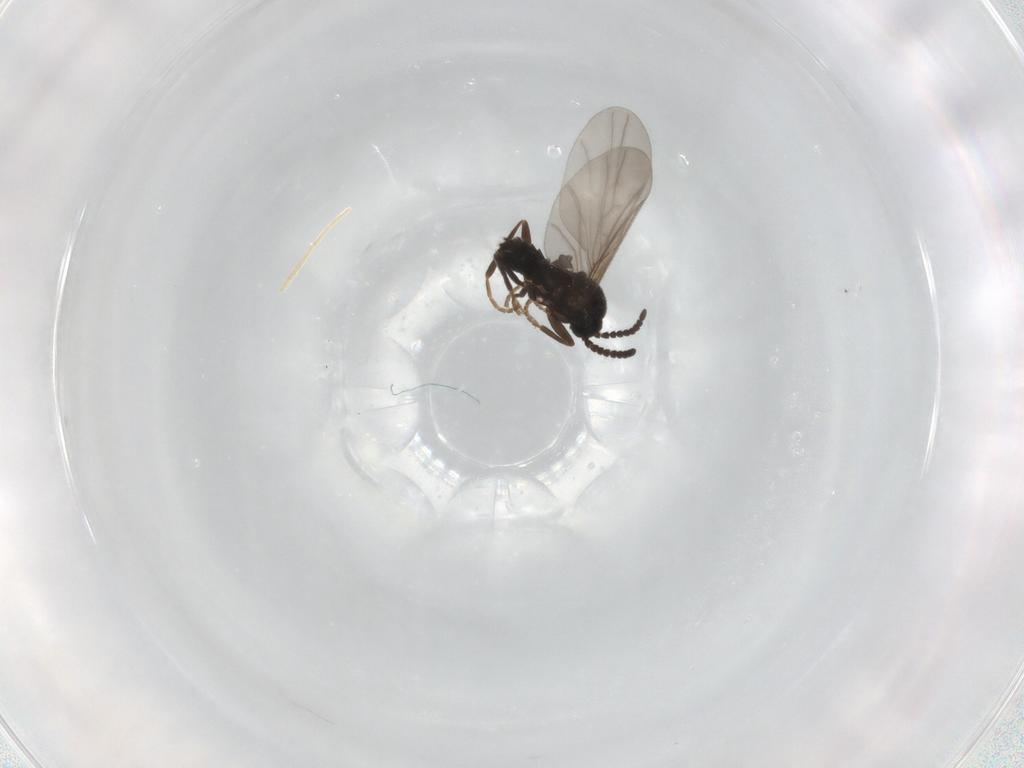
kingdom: Animalia
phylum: Arthropoda
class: Insecta
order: Diptera
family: Scatopsidae
